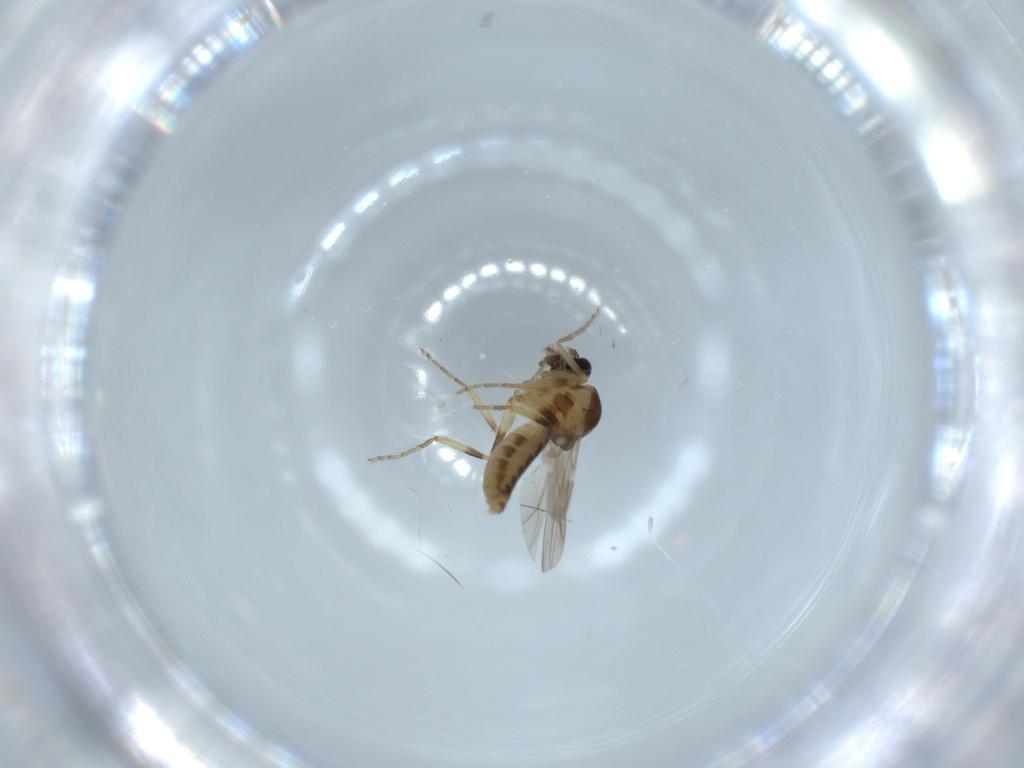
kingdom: Animalia
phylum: Arthropoda
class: Insecta
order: Diptera
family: Ceratopogonidae
